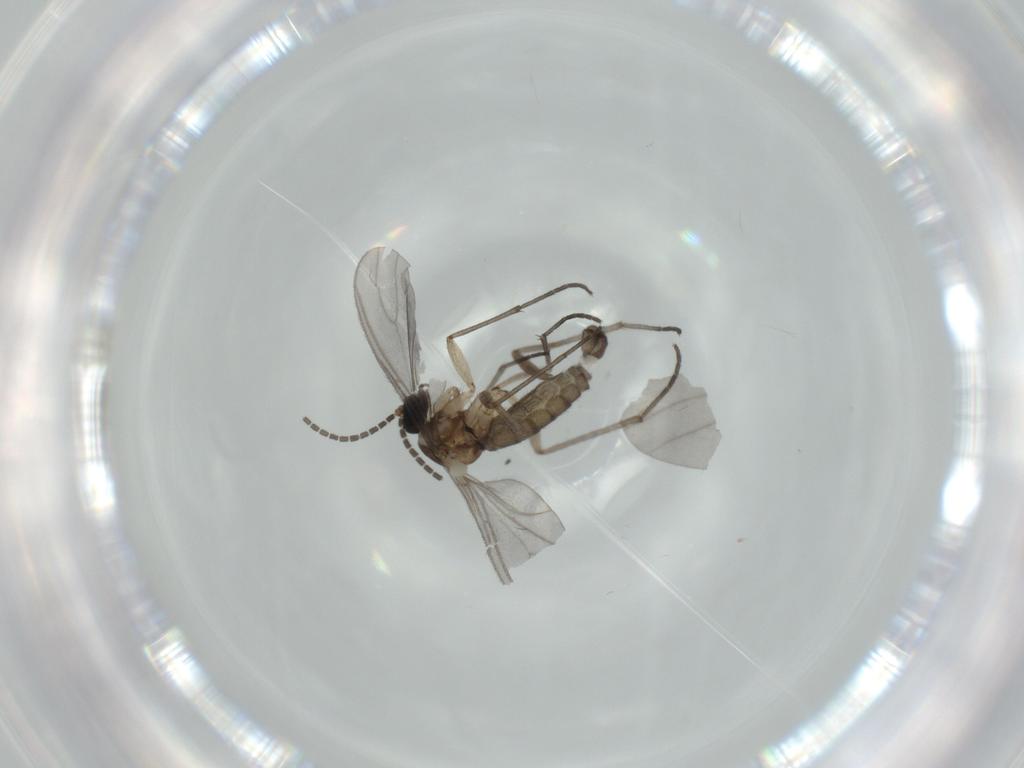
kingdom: Animalia
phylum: Arthropoda
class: Insecta
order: Diptera
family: Sciaridae
